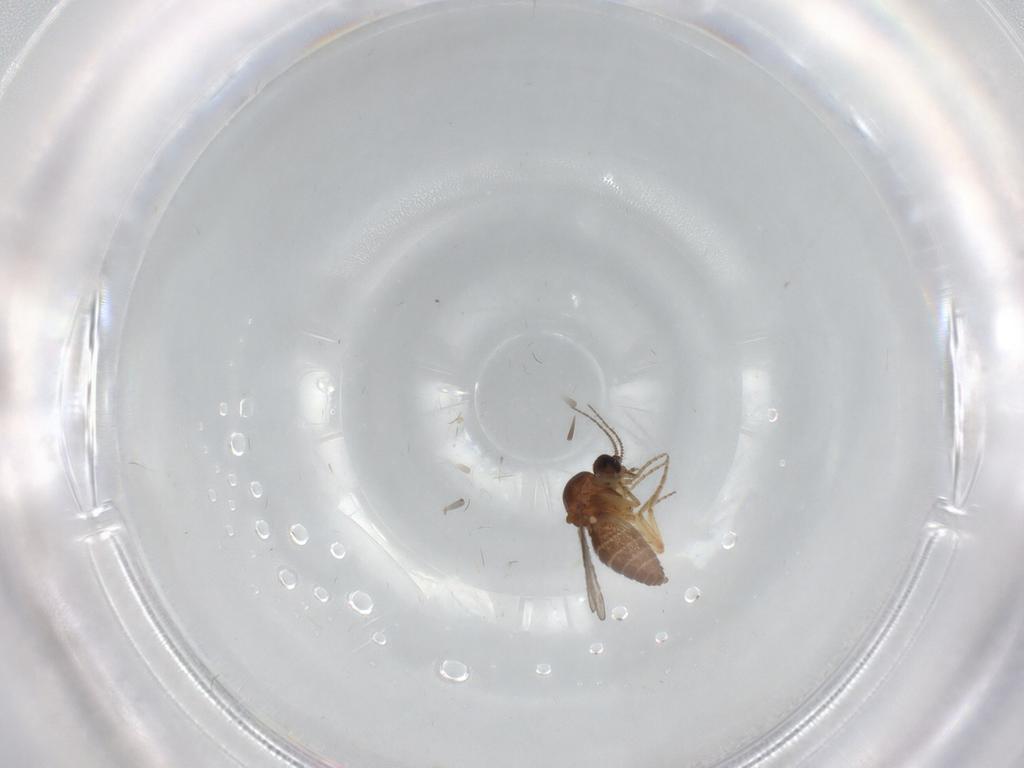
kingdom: Animalia
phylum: Arthropoda
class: Insecta
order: Diptera
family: Ceratopogonidae
